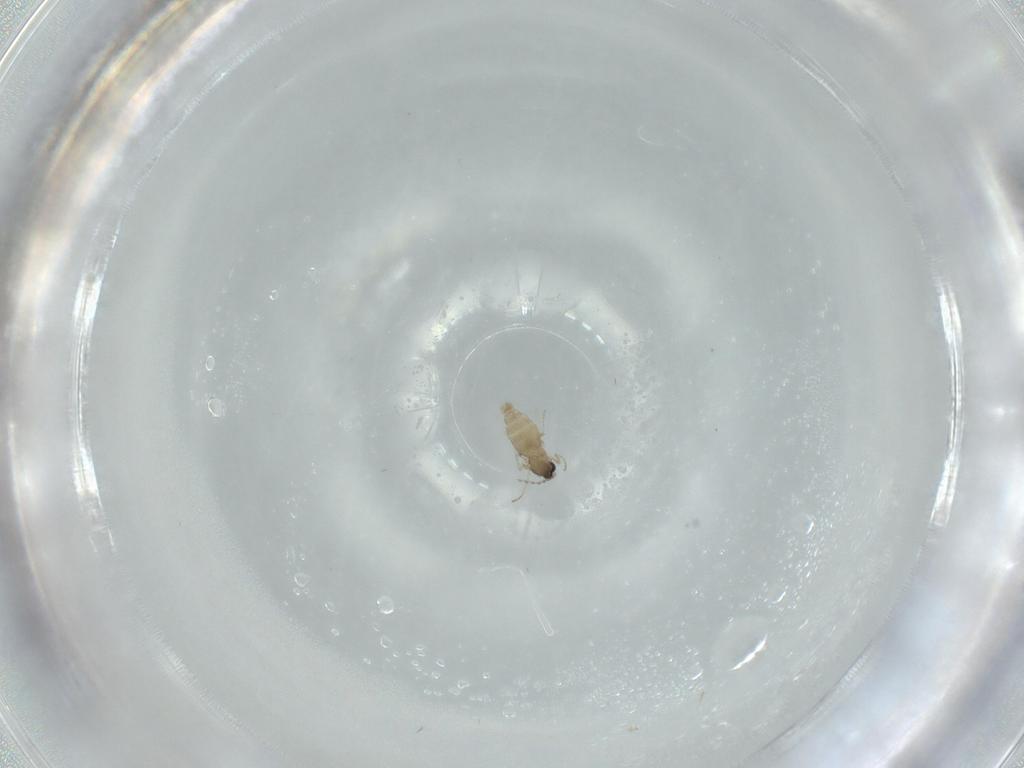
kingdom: Animalia
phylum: Arthropoda
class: Insecta
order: Diptera
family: Cecidomyiidae
